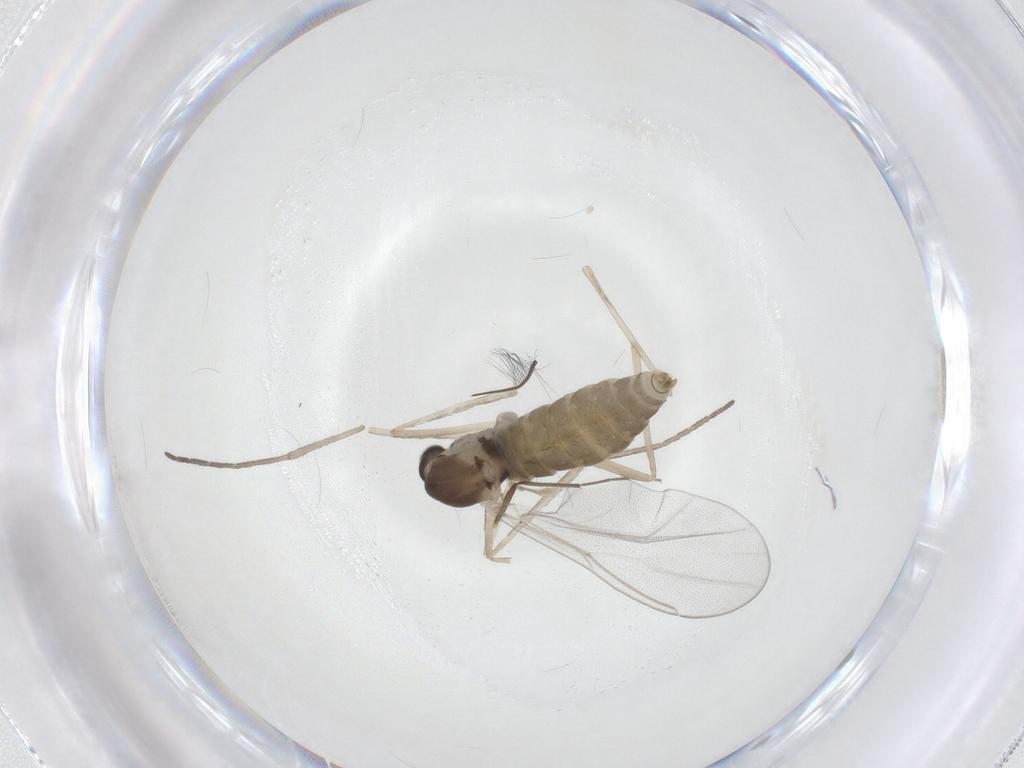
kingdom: Animalia
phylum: Arthropoda
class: Insecta
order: Diptera
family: Cecidomyiidae
